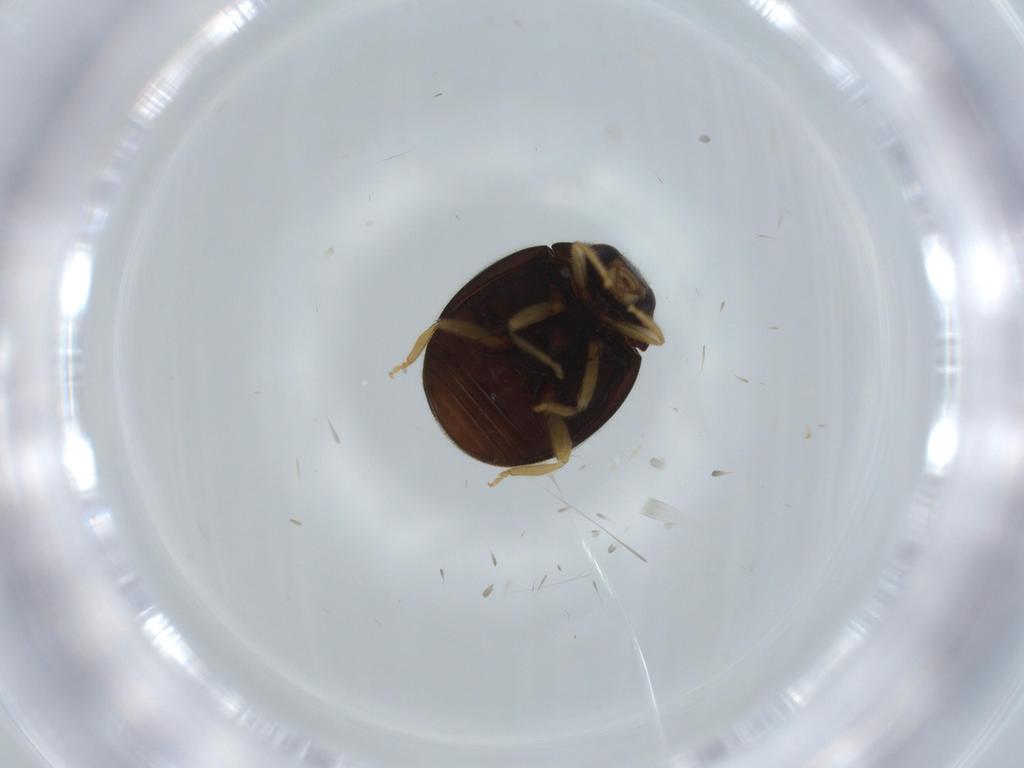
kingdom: Animalia
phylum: Arthropoda
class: Insecta
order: Coleoptera
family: Coccinellidae
